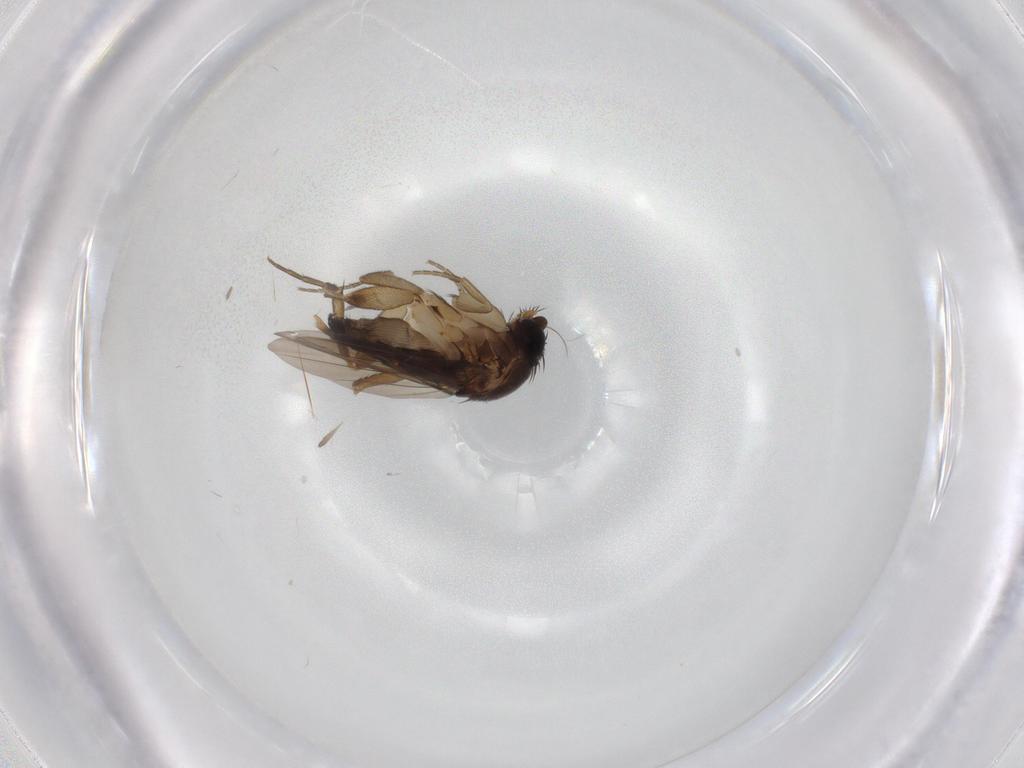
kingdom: Animalia
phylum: Arthropoda
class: Insecta
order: Diptera
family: Phoridae
